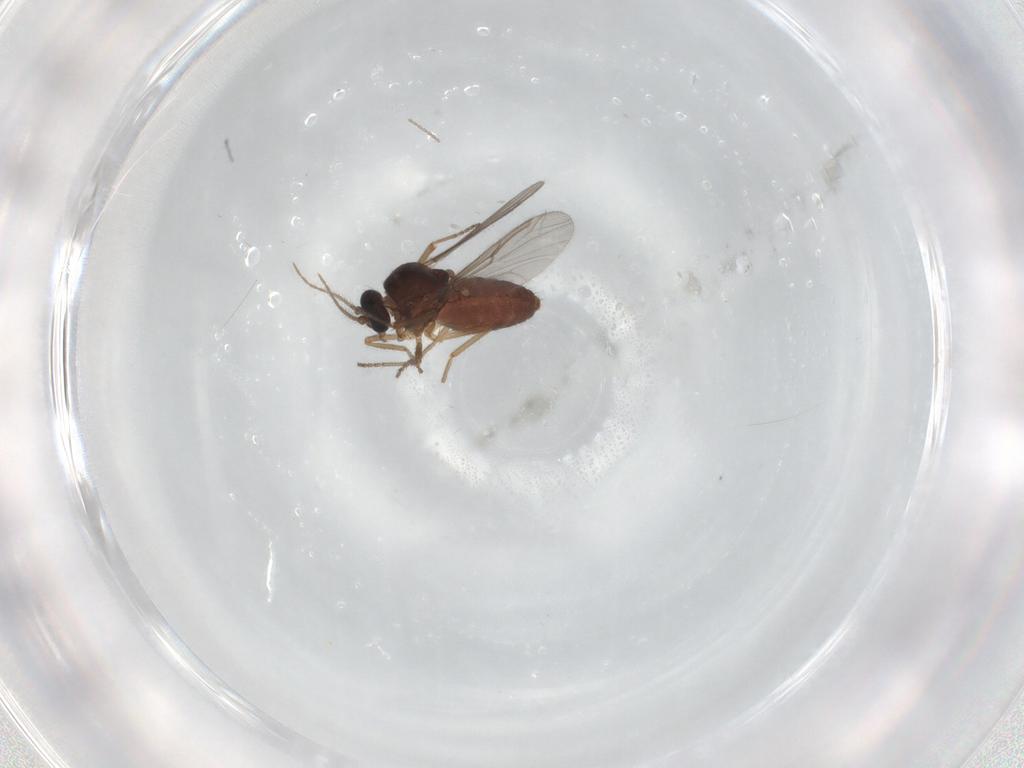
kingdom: Animalia
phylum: Arthropoda
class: Insecta
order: Diptera
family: Ceratopogonidae
